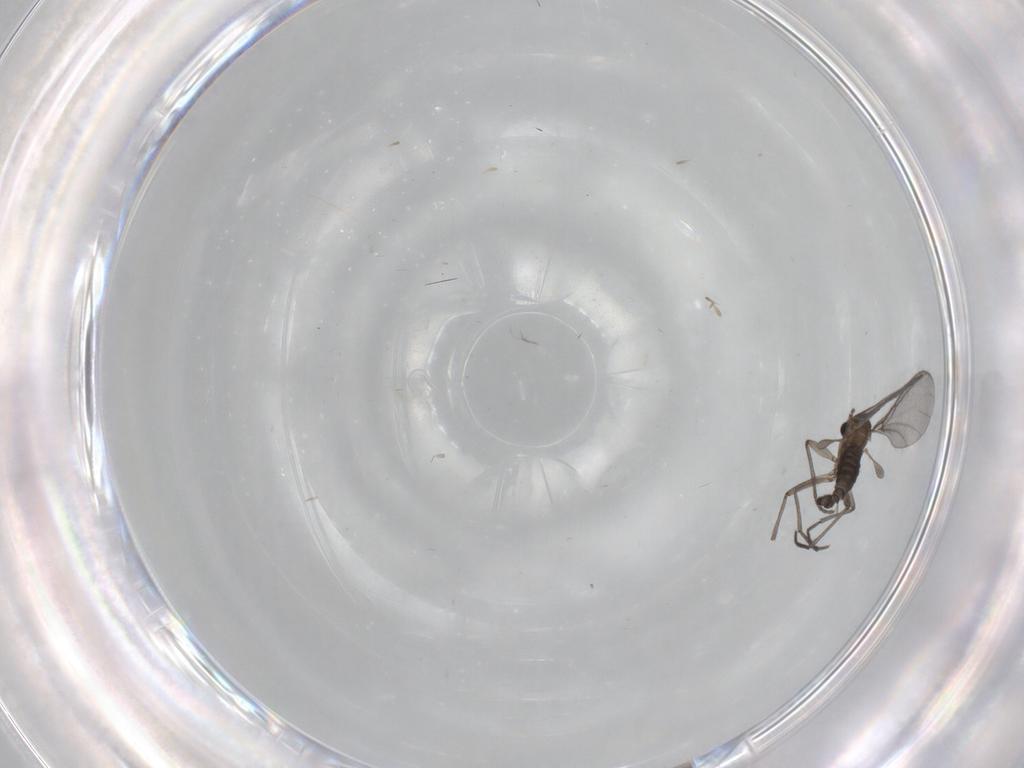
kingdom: Animalia
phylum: Arthropoda
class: Insecta
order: Diptera
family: Sciaridae
